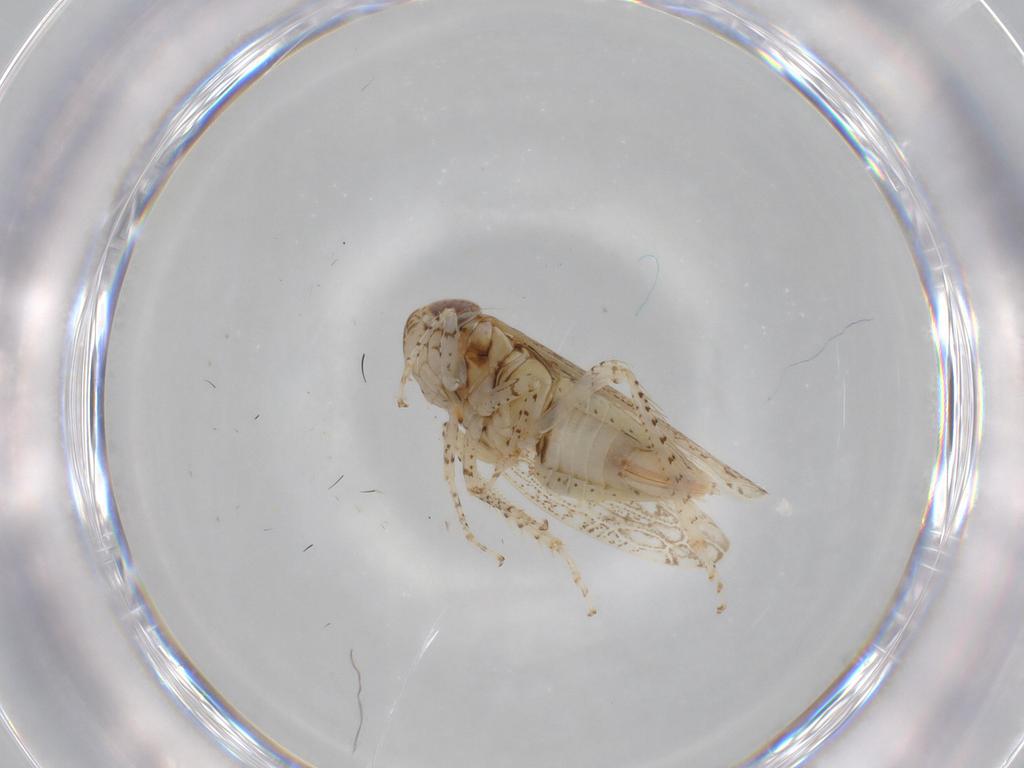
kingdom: Animalia
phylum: Arthropoda
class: Insecta
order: Hemiptera
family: Cicadellidae
